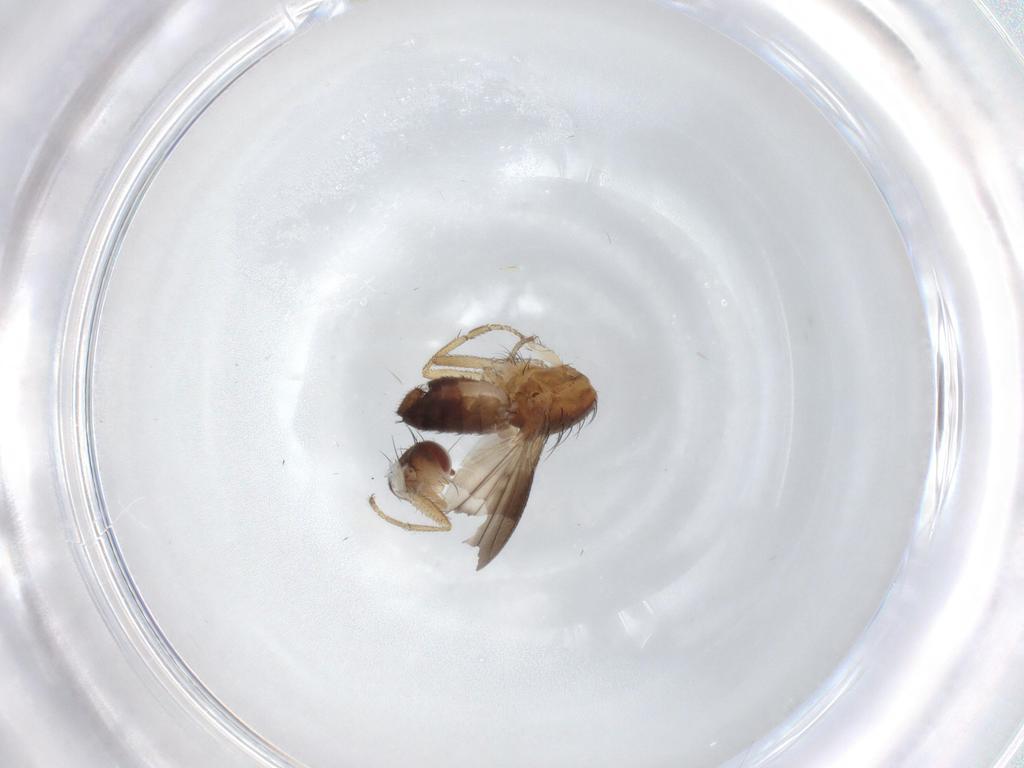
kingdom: Animalia
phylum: Arthropoda
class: Insecta
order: Diptera
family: Heleomyzidae
